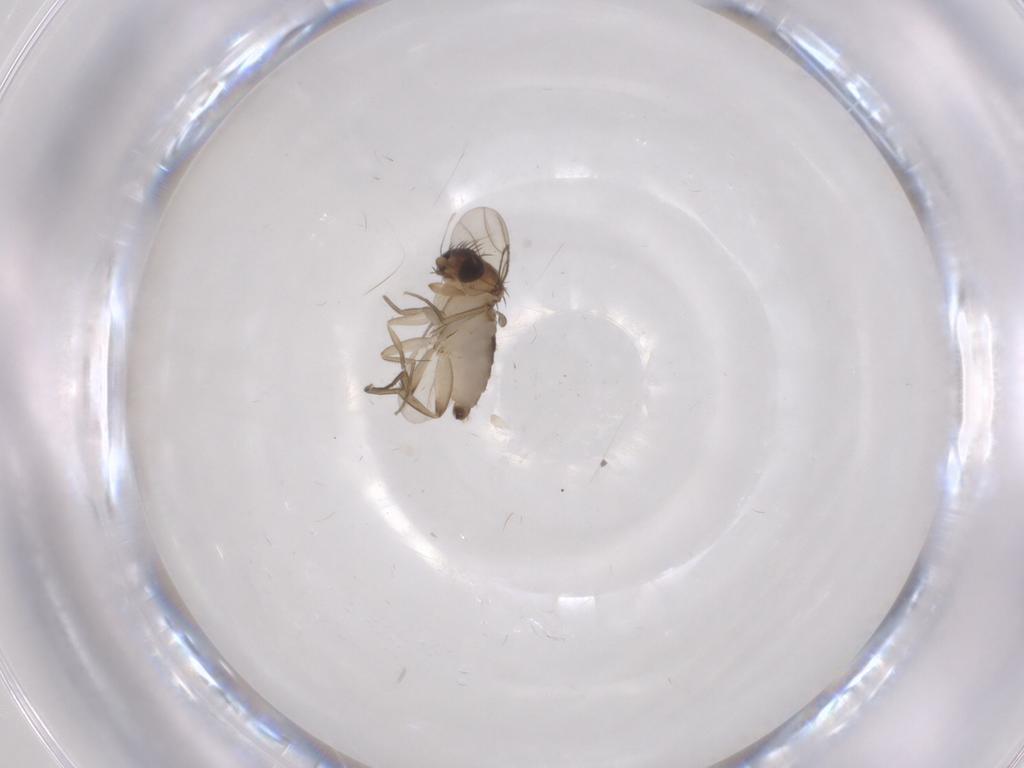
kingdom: Animalia
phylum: Arthropoda
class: Insecta
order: Diptera
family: Phoridae
